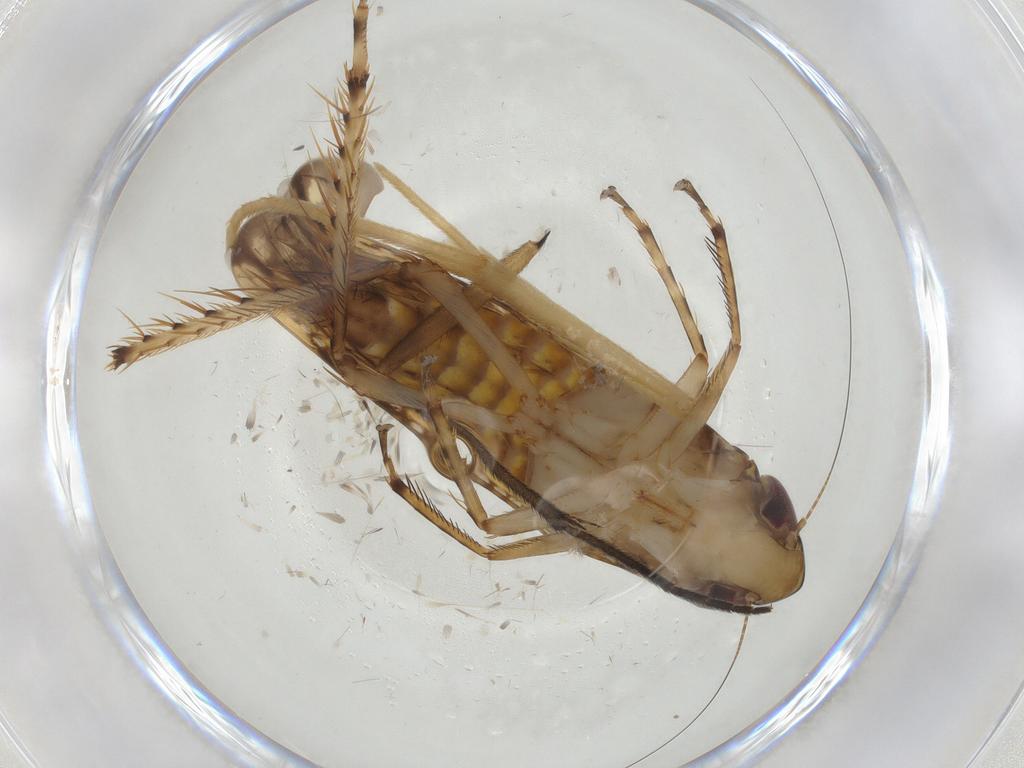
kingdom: Animalia
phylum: Arthropoda
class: Insecta
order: Hemiptera
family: Cicadellidae
